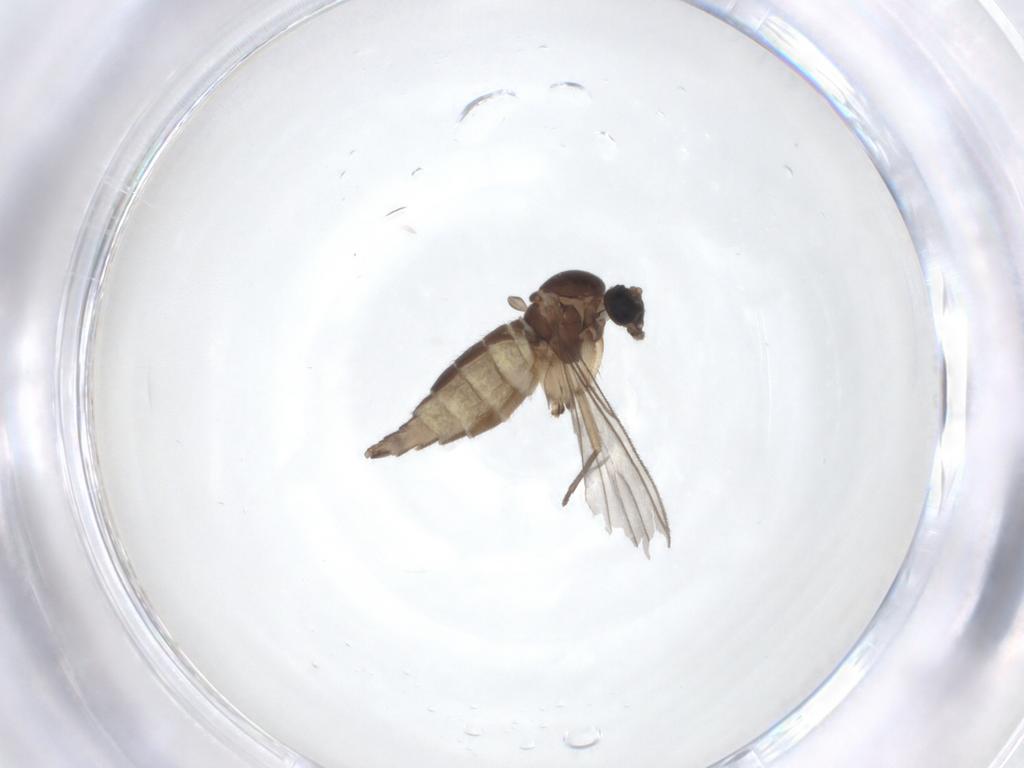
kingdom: Animalia
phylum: Arthropoda
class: Insecta
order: Diptera
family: Sciaridae
